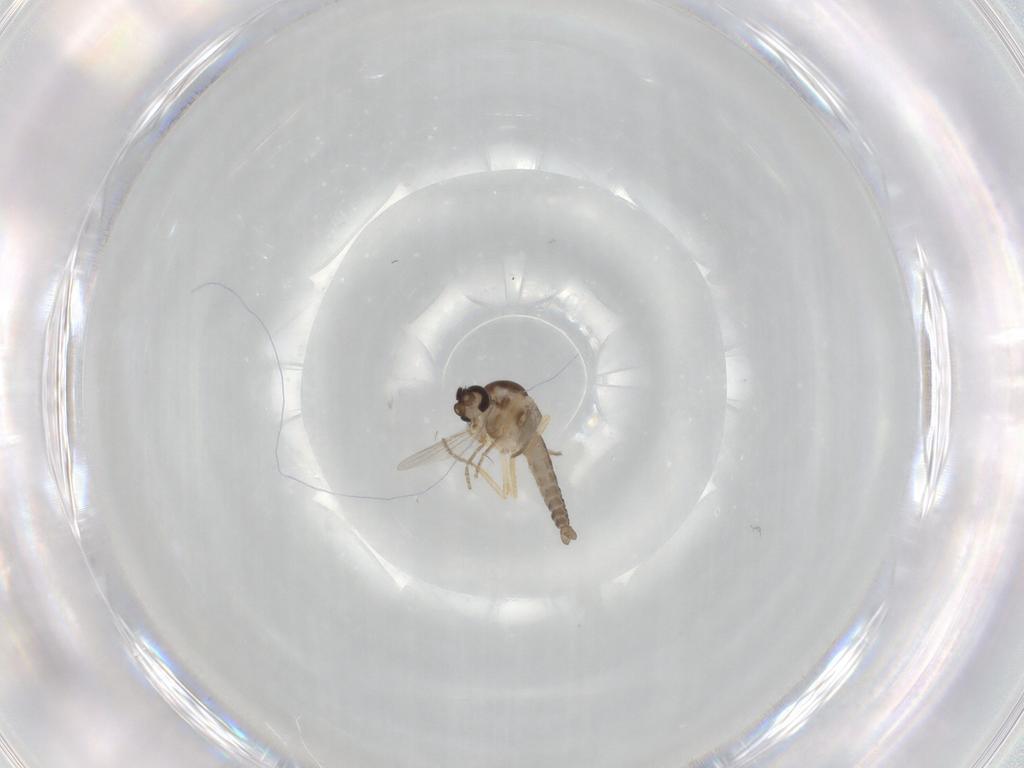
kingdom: Animalia
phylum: Arthropoda
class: Insecta
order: Diptera
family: Ceratopogonidae
